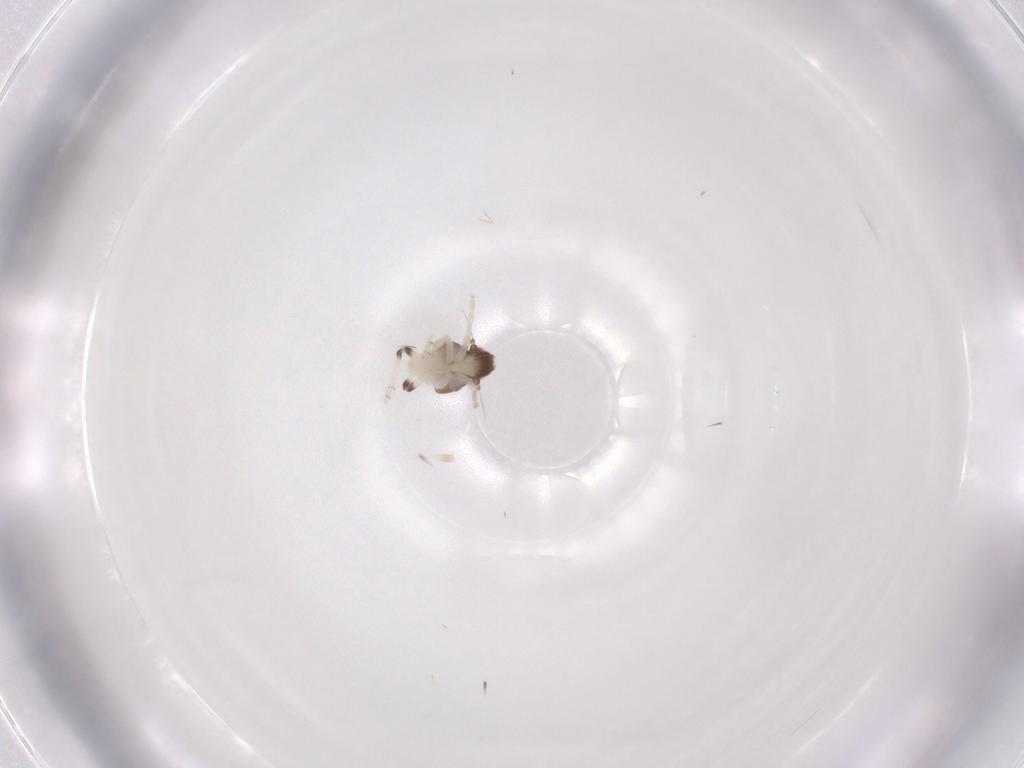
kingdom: Animalia
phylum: Arthropoda
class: Insecta
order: Hemiptera
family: Nogodinidae
